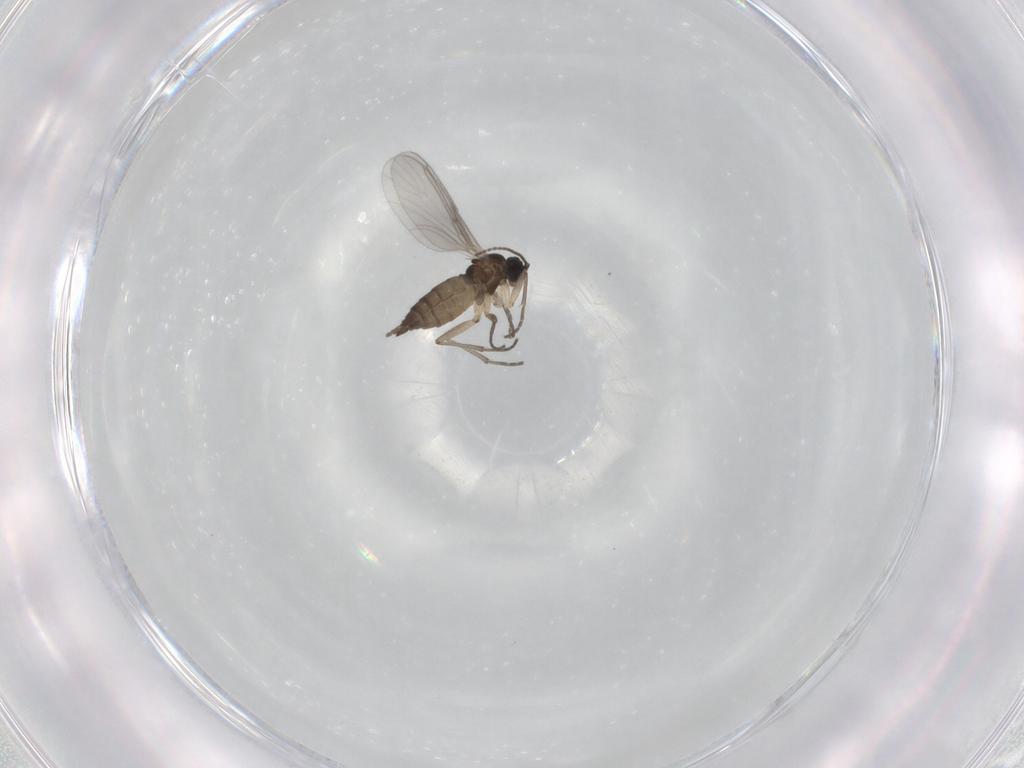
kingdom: Animalia
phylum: Arthropoda
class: Insecta
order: Diptera
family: Sciaridae
